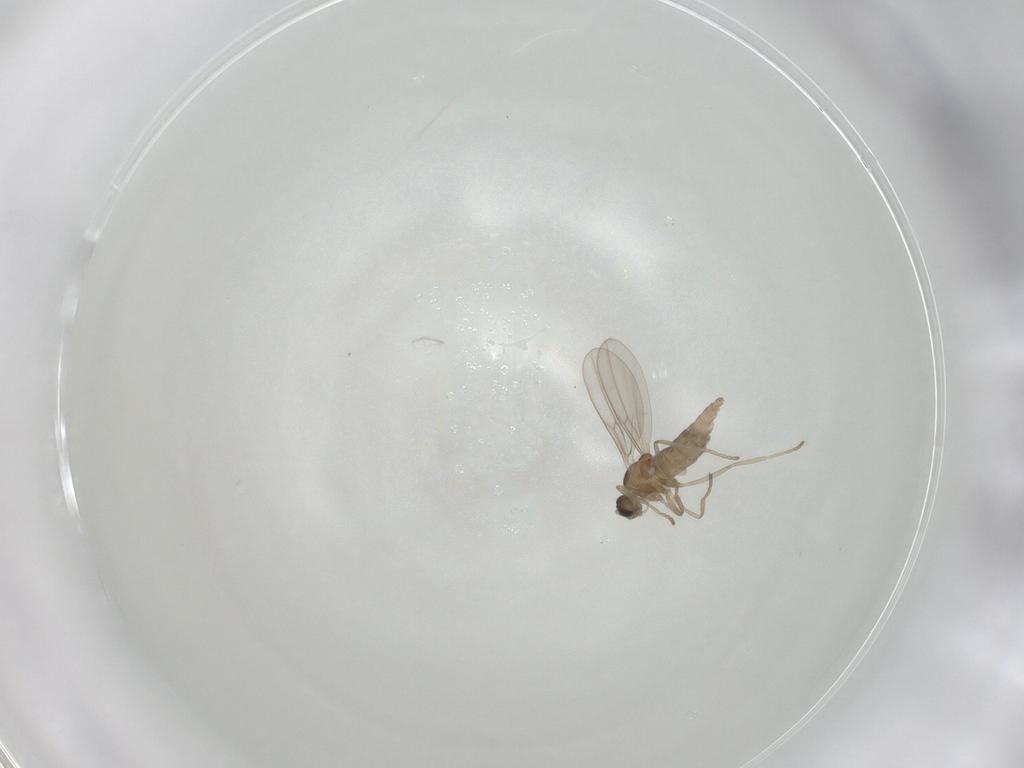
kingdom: Animalia
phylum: Arthropoda
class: Insecta
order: Diptera
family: Cecidomyiidae
